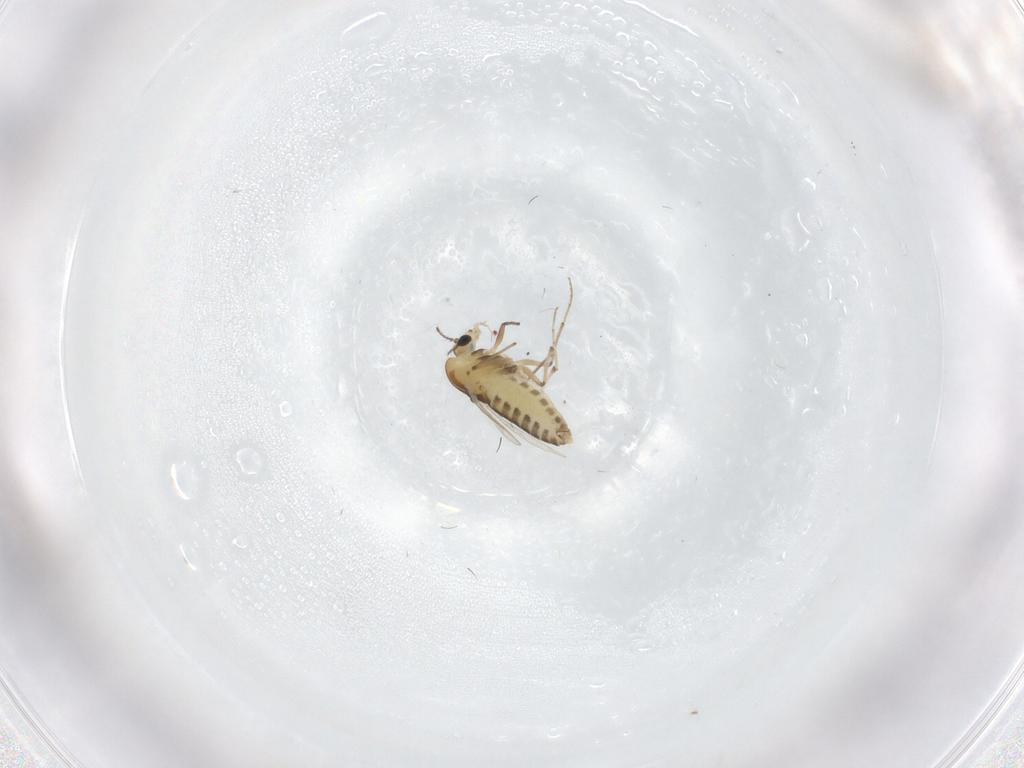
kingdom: Animalia
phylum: Arthropoda
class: Insecta
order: Diptera
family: Chironomidae
